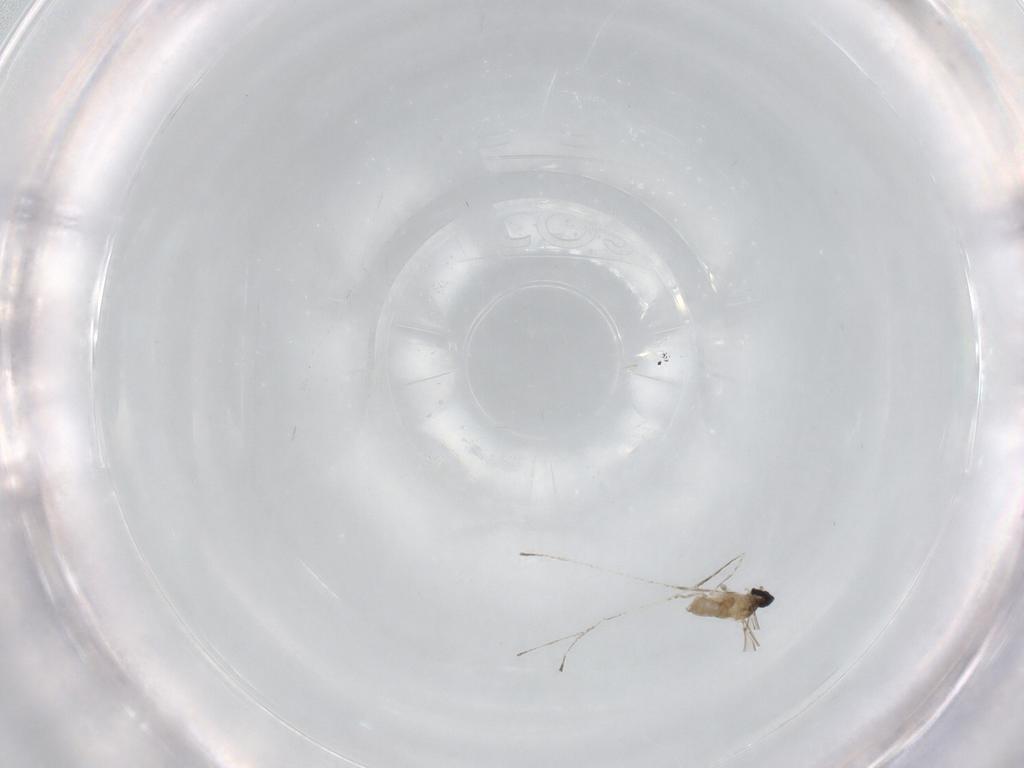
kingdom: Animalia
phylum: Arthropoda
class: Insecta
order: Diptera
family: Cecidomyiidae
